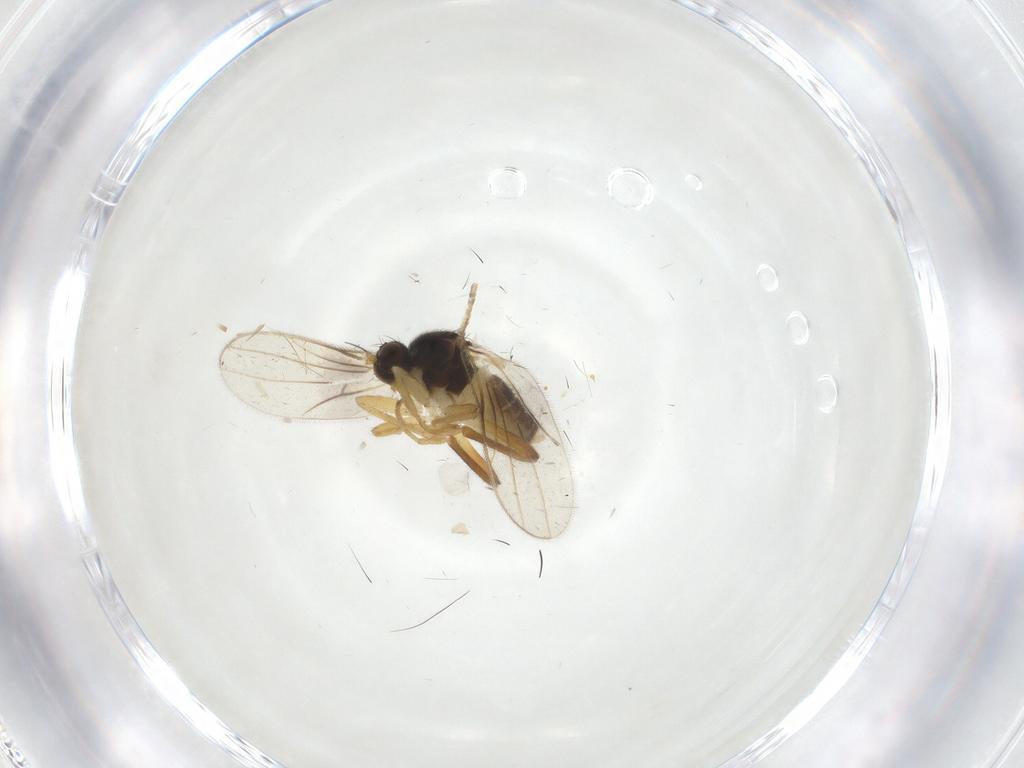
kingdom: Animalia
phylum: Arthropoda
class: Insecta
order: Diptera
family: Hybotidae
